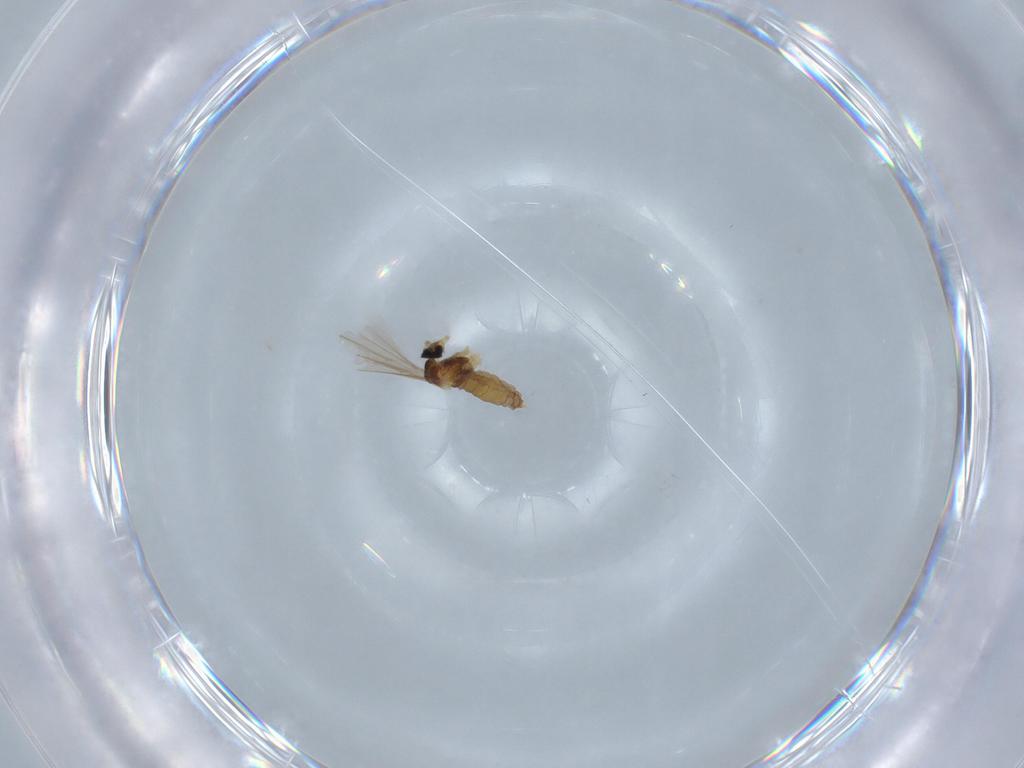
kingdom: Animalia
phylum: Arthropoda
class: Insecta
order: Diptera
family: Cecidomyiidae
